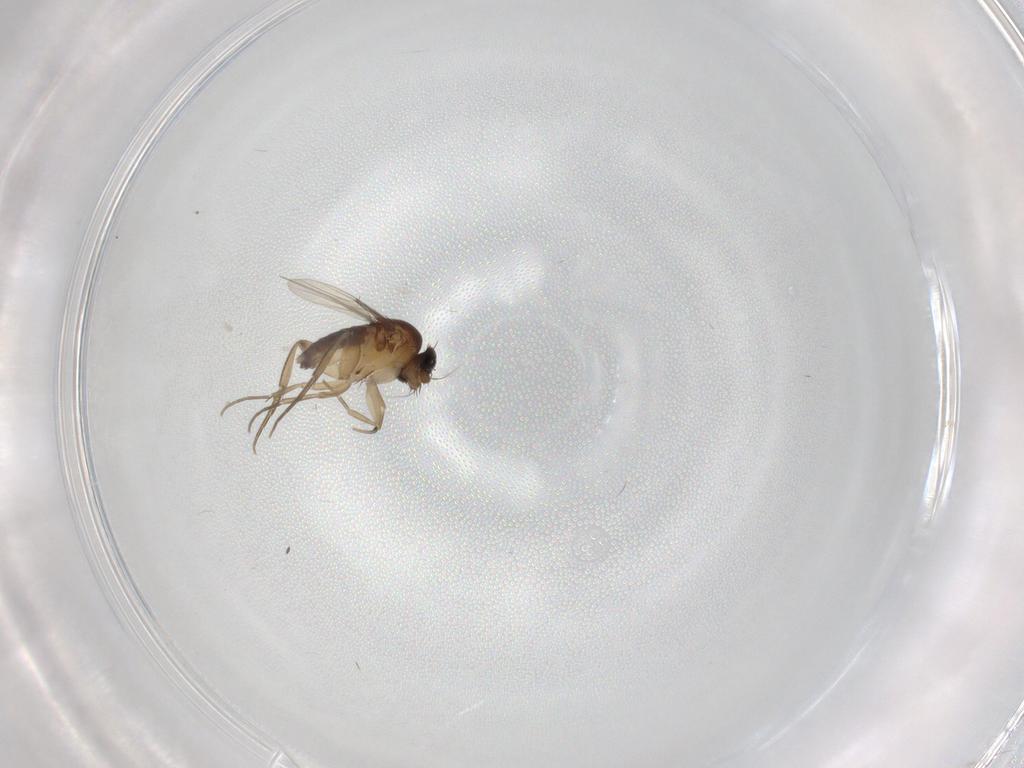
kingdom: Animalia
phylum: Arthropoda
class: Insecta
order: Diptera
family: Phoridae
